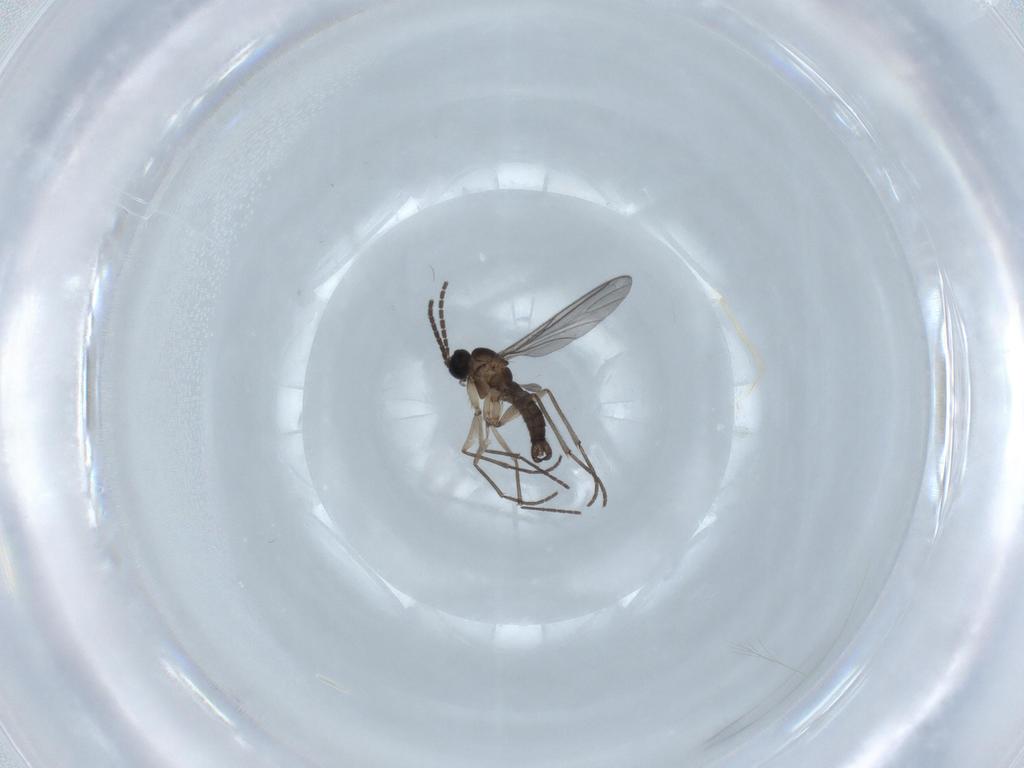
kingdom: Animalia
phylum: Arthropoda
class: Insecta
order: Diptera
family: Sciaridae
